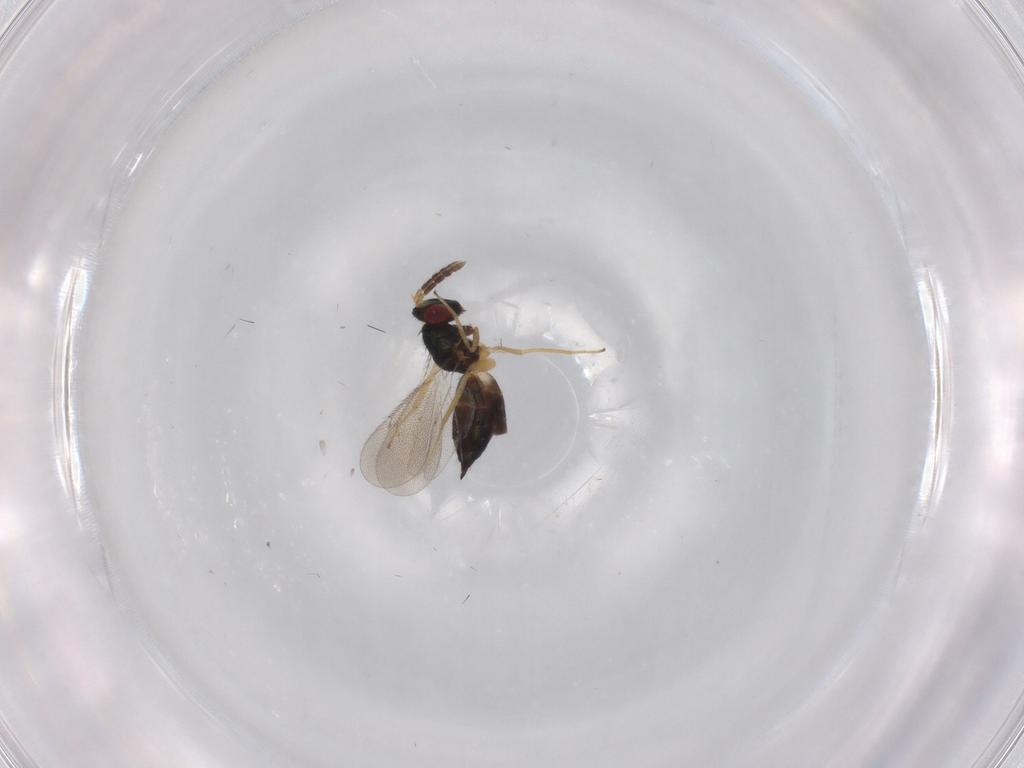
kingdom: Animalia
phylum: Arthropoda
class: Insecta
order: Hymenoptera
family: Eulophidae
